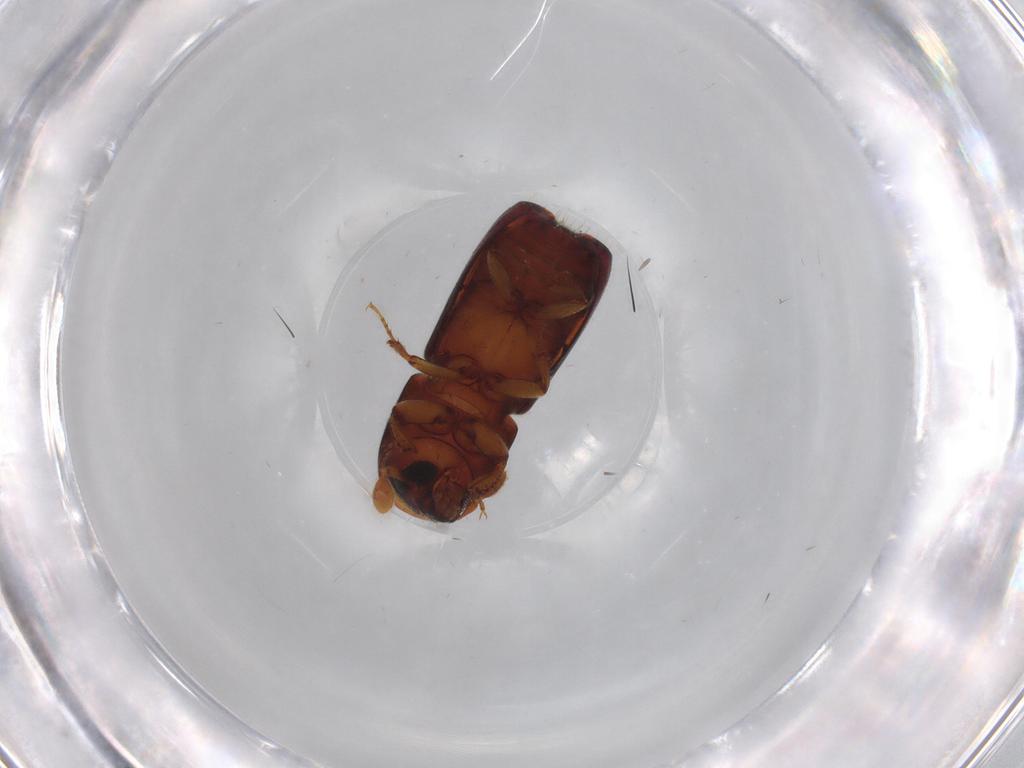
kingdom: Animalia
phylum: Arthropoda
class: Insecta
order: Coleoptera
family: Curculionidae
